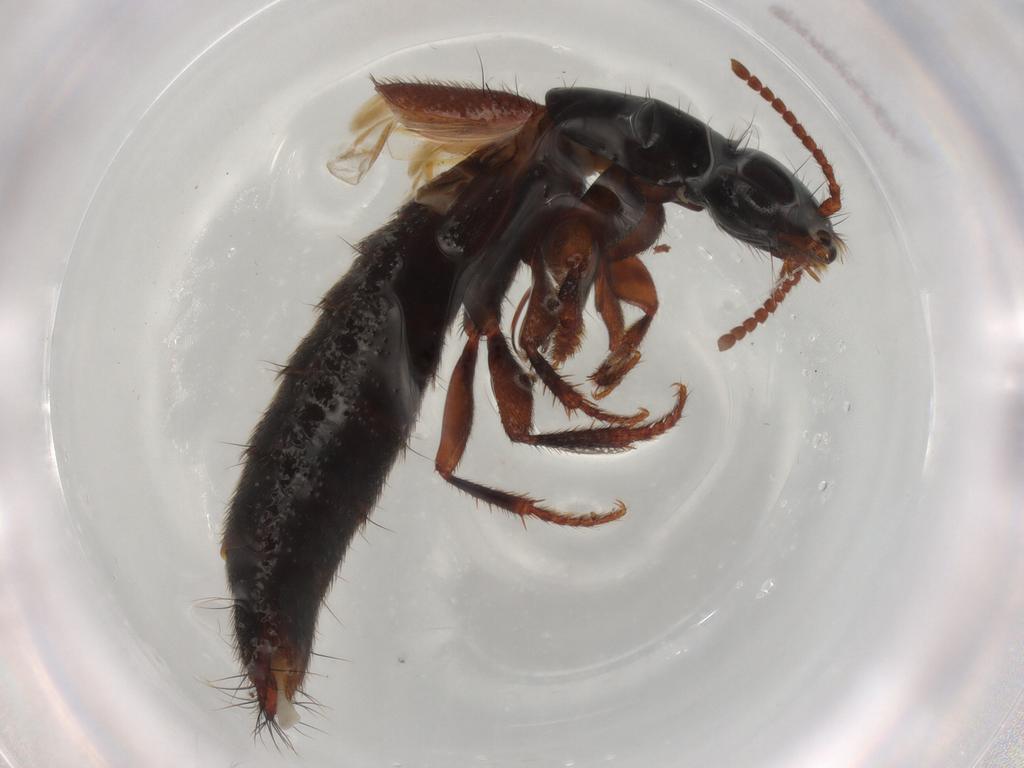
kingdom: Animalia
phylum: Arthropoda
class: Insecta
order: Coleoptera
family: Staphylinidae
